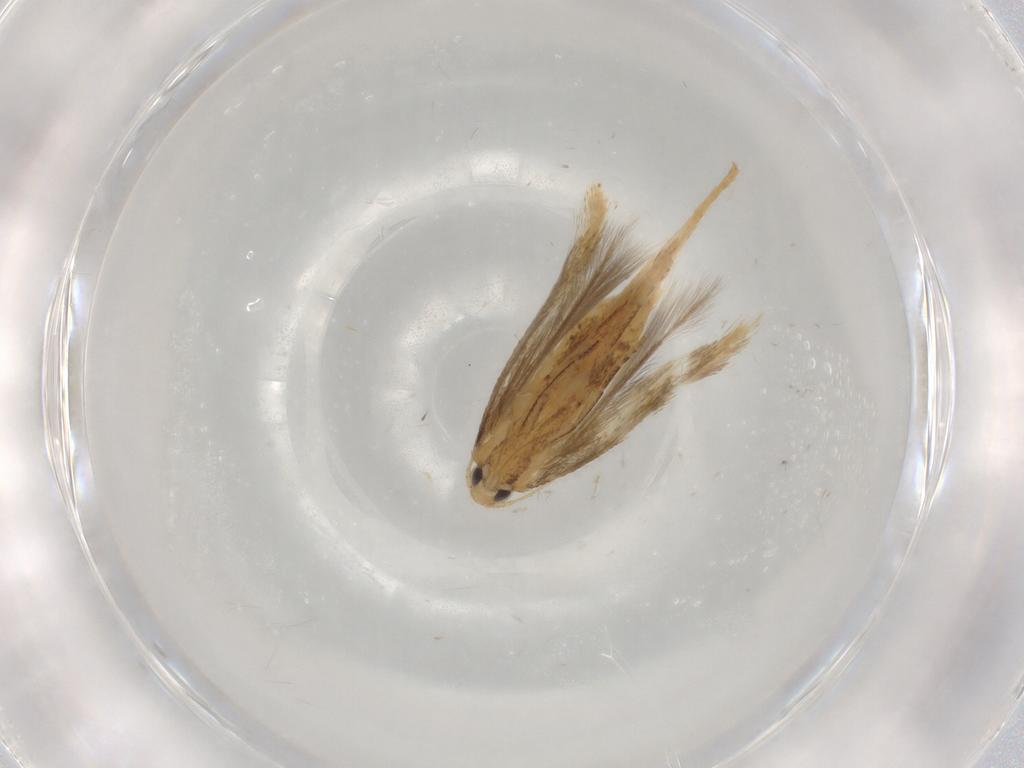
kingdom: Animalia
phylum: Arthropoda
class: Insecta
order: Lepidoptera
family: Tischeriidae
